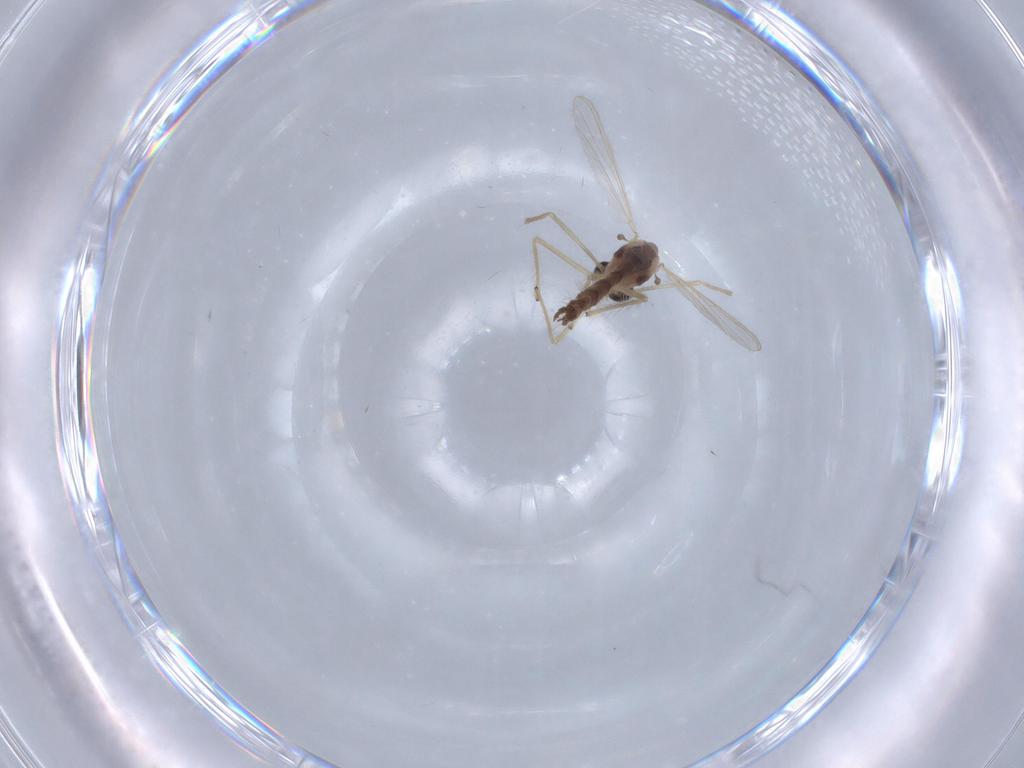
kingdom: Animalia
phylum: Arthropoda
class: Insecta
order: Diptera
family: Chironomidae
